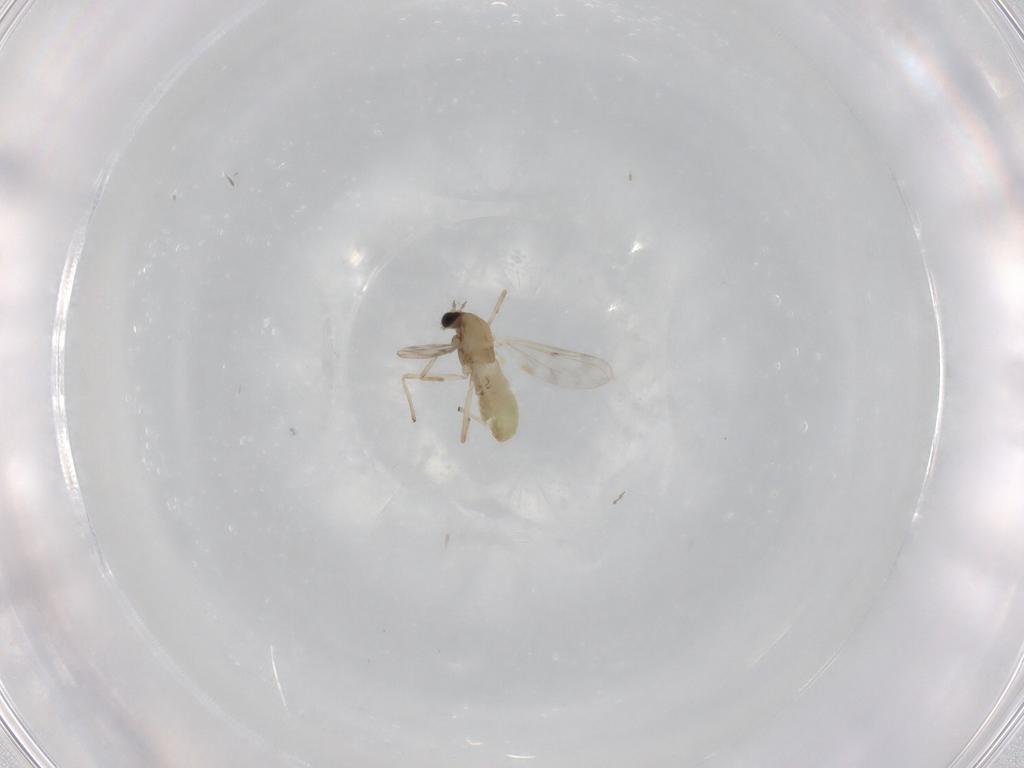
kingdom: Animalia
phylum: Arthropoda
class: Insecta
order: Diptera
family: Chironomidae
